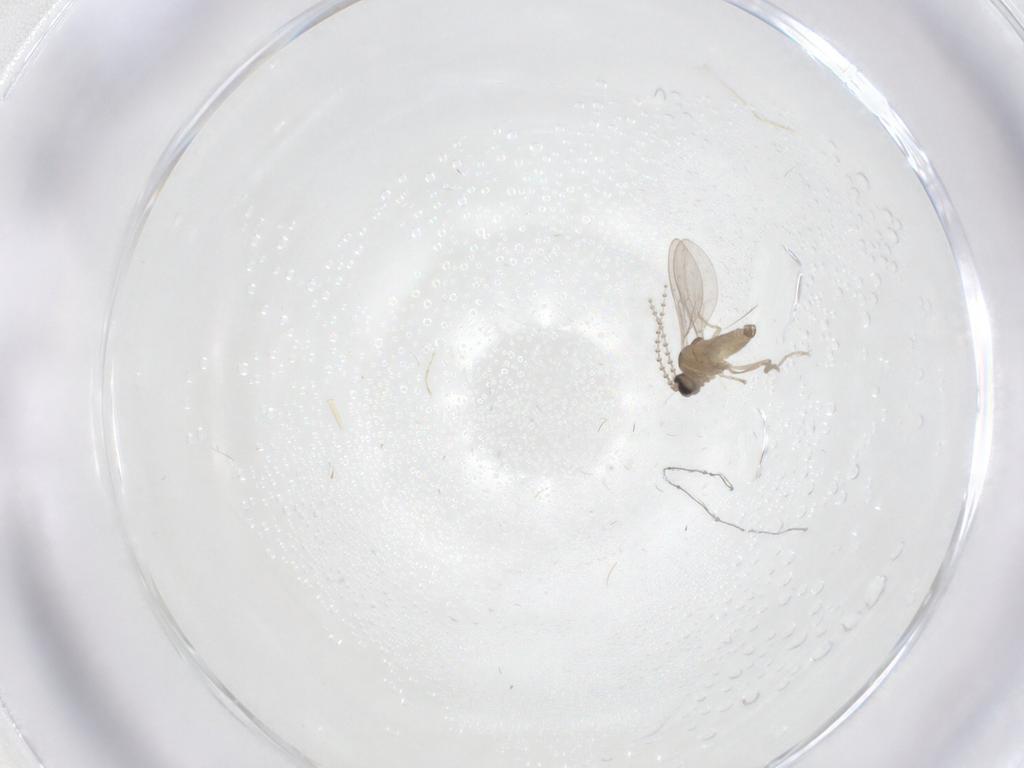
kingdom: Animalia
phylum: Arthropoda
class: Insecta
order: Diptera
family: Cecidomyiidae
